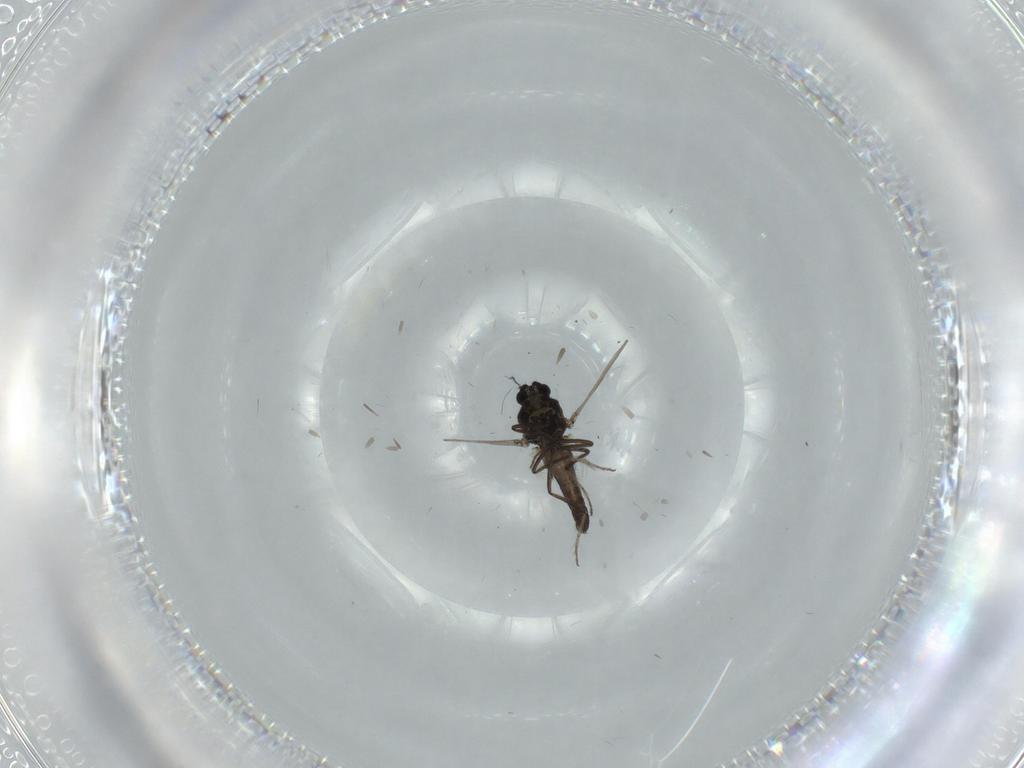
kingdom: Animalia
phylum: Arthropoda
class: Insecta
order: Diptera
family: Ceratopogonidae
